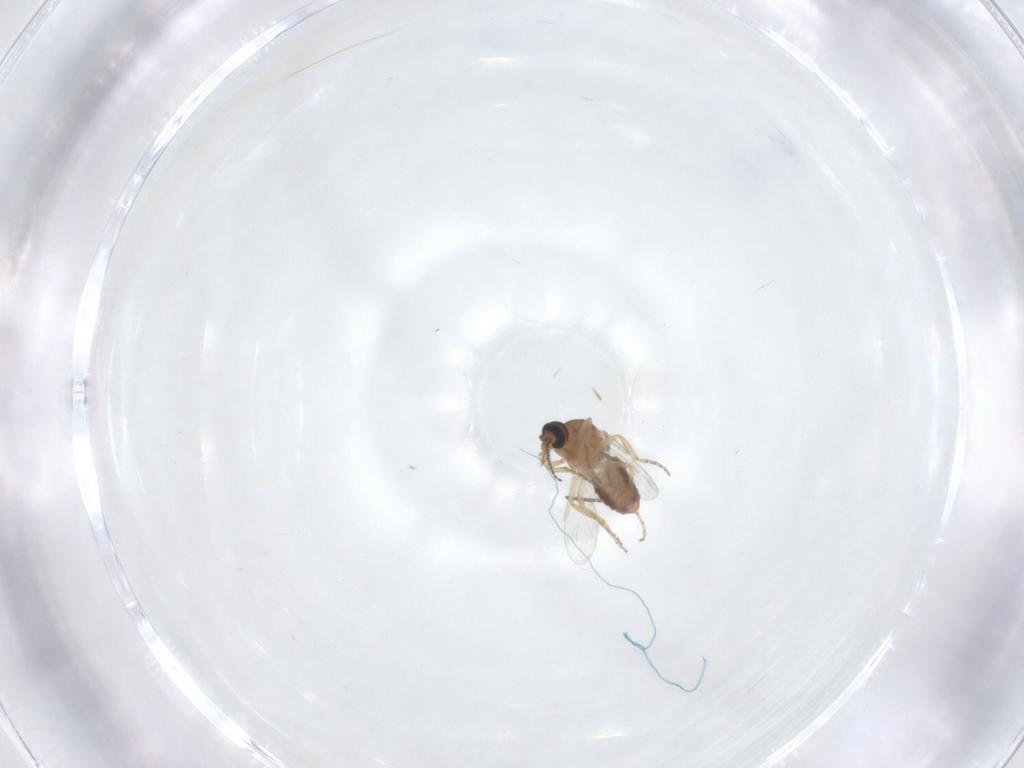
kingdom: Animalia
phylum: Arthropoda
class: Insecta
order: Diptera
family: Ceratopogonidae
